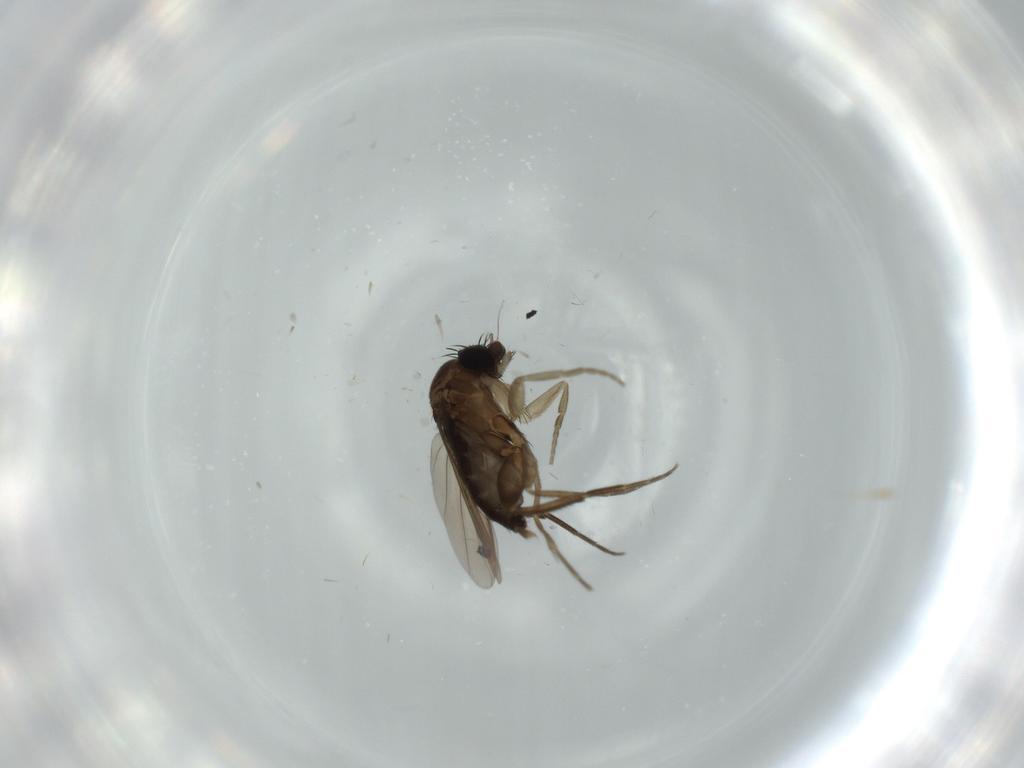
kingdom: Animalia
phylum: Arthropoda
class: Insecta
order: Diptera
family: Phoridae
